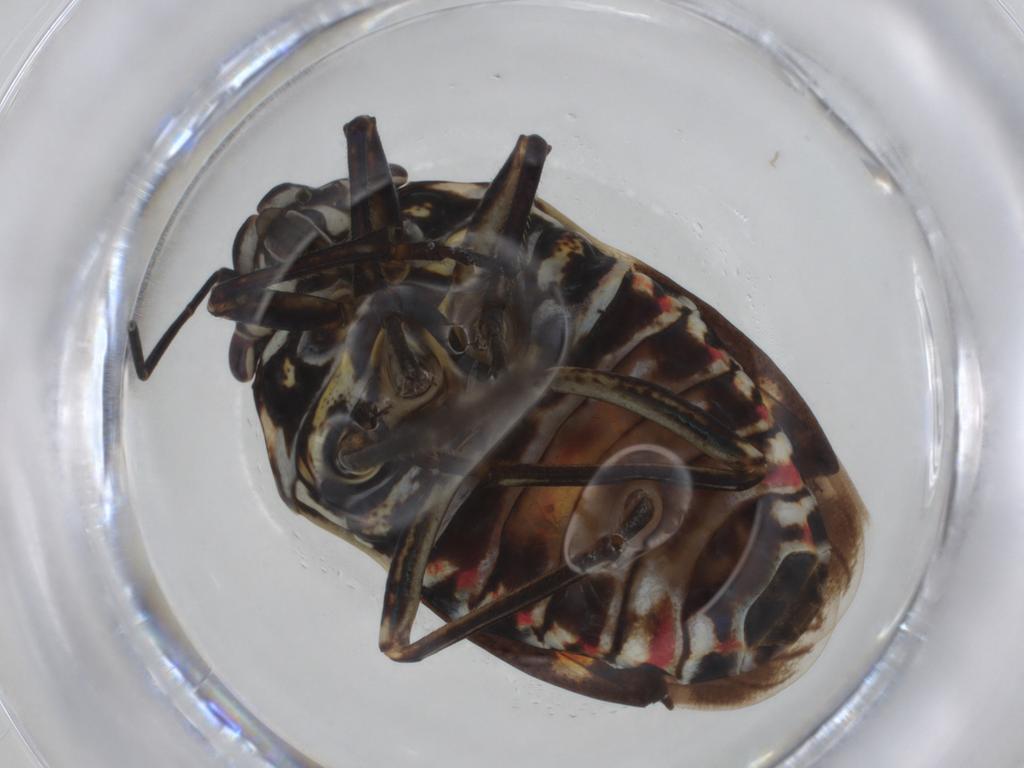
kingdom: Animalia
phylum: Arthropoda
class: Insecta
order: Hemiptera
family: Pentatomidae
